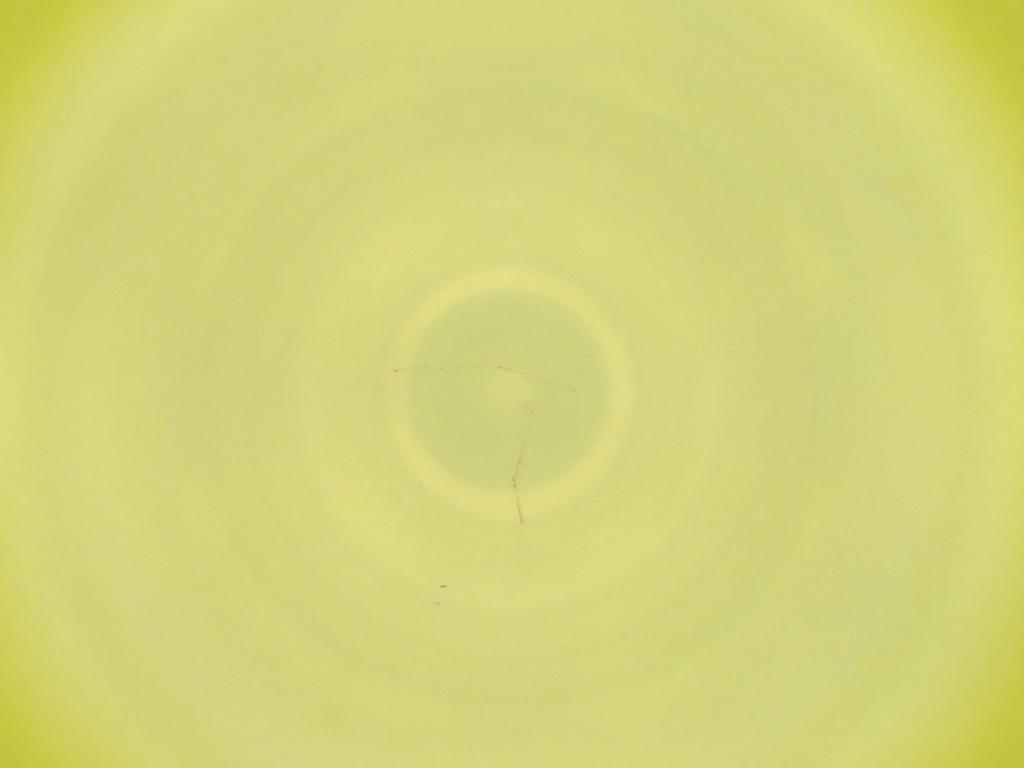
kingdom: Animalia
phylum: Arthropoda
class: Insecta
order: Diptera
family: Cecidomyiidae
